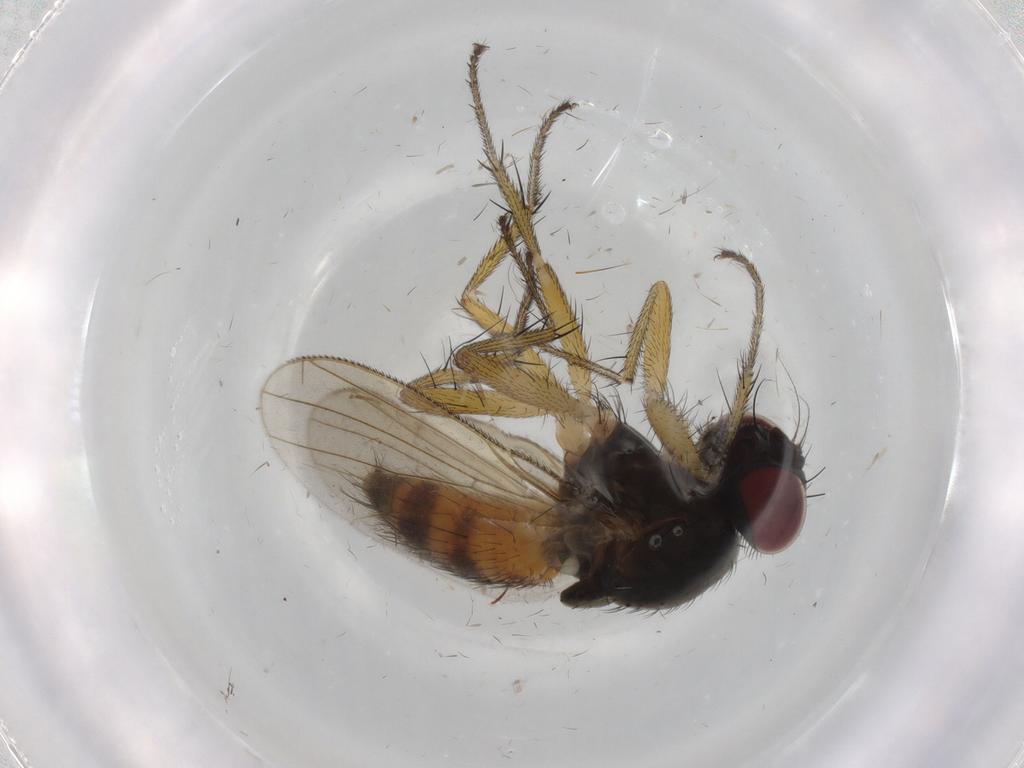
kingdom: Animalia
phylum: Arthropoda
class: Insecta
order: Diptera
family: Muscidae
